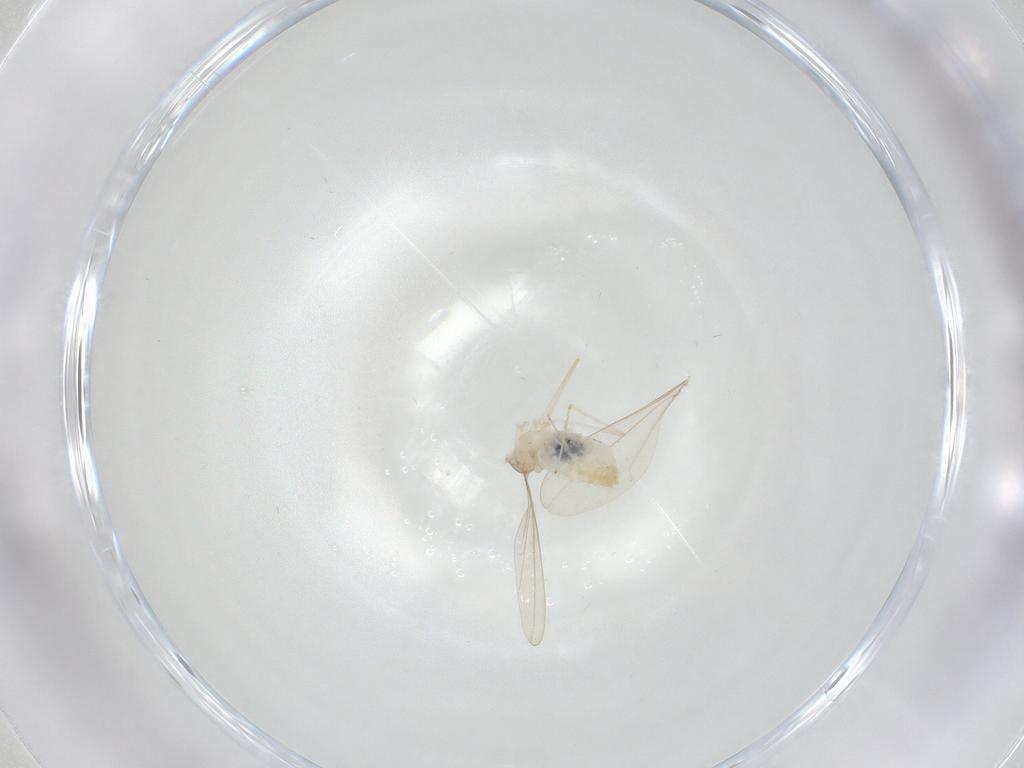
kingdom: Animalia
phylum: Arthropoda
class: Insecta
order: Diptera
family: Cecidomyiidae
